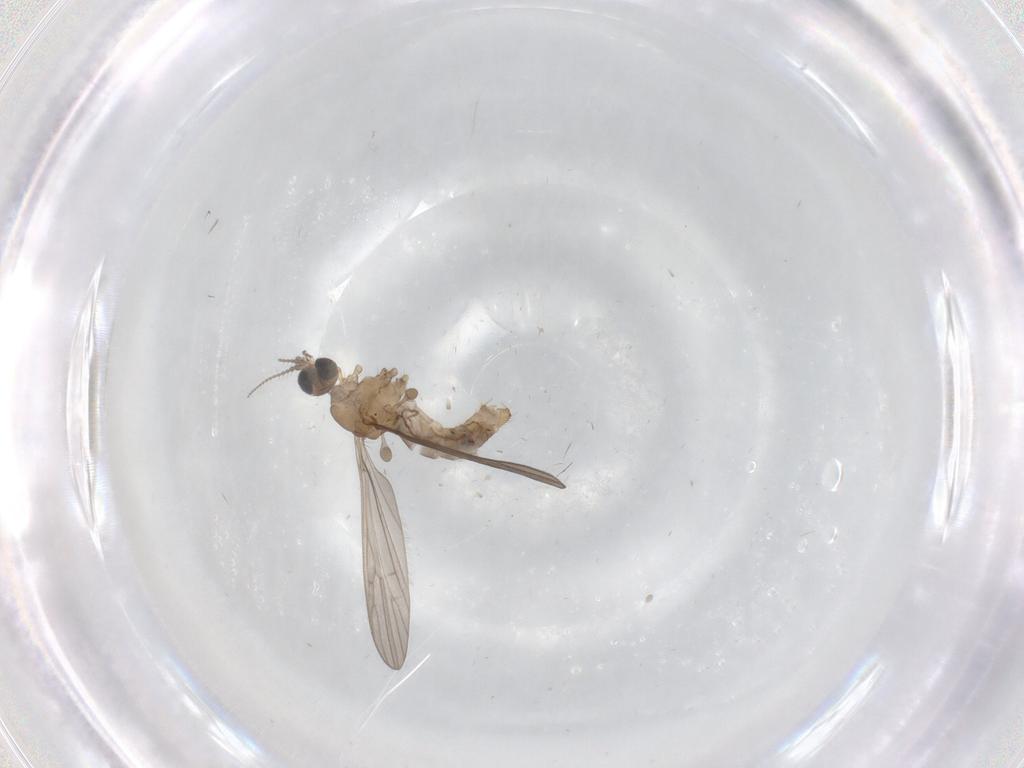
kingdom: Animalia
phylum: Arthropoda
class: Insecta
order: Diptera
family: Limoniidae
